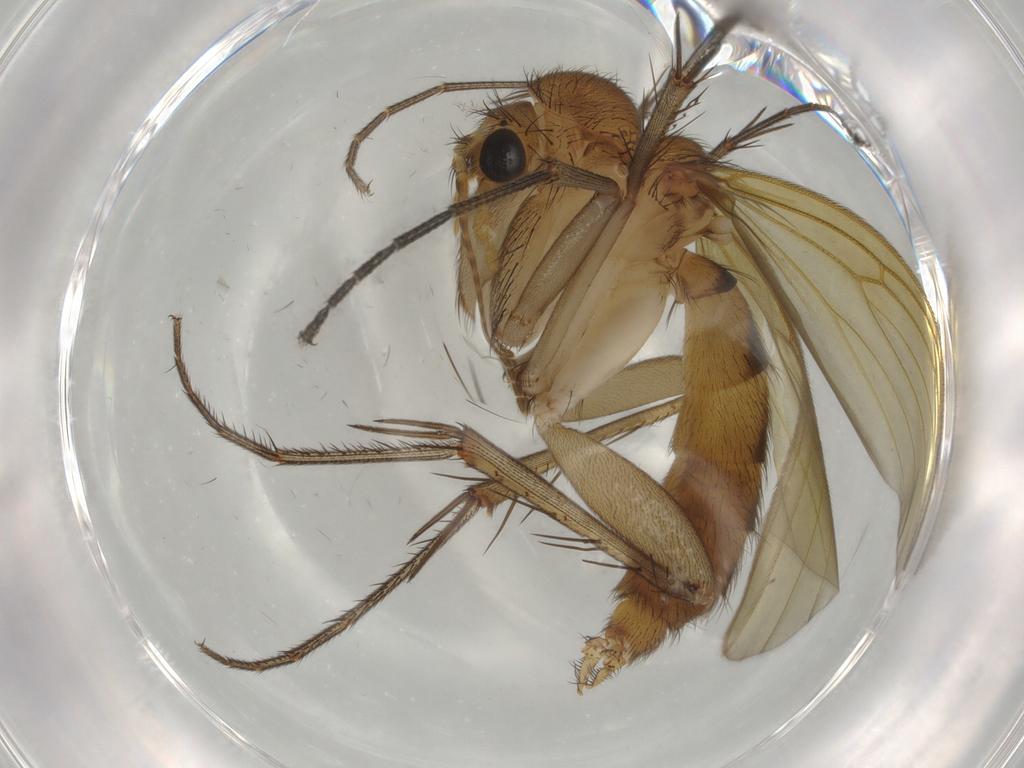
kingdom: Animalia
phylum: Arthropoda
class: Insecta
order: Diptera
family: Mycetophilidae
